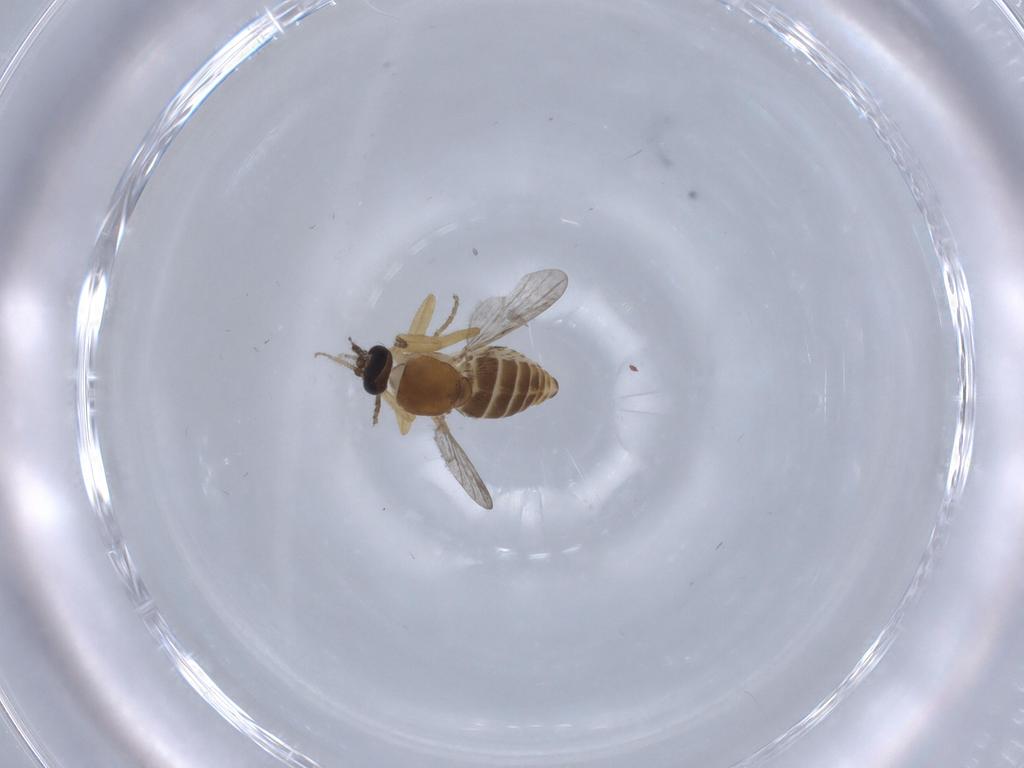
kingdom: Animalia
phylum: Arthropoda
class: Insecta
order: Diptera
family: Ceratopogonidae
